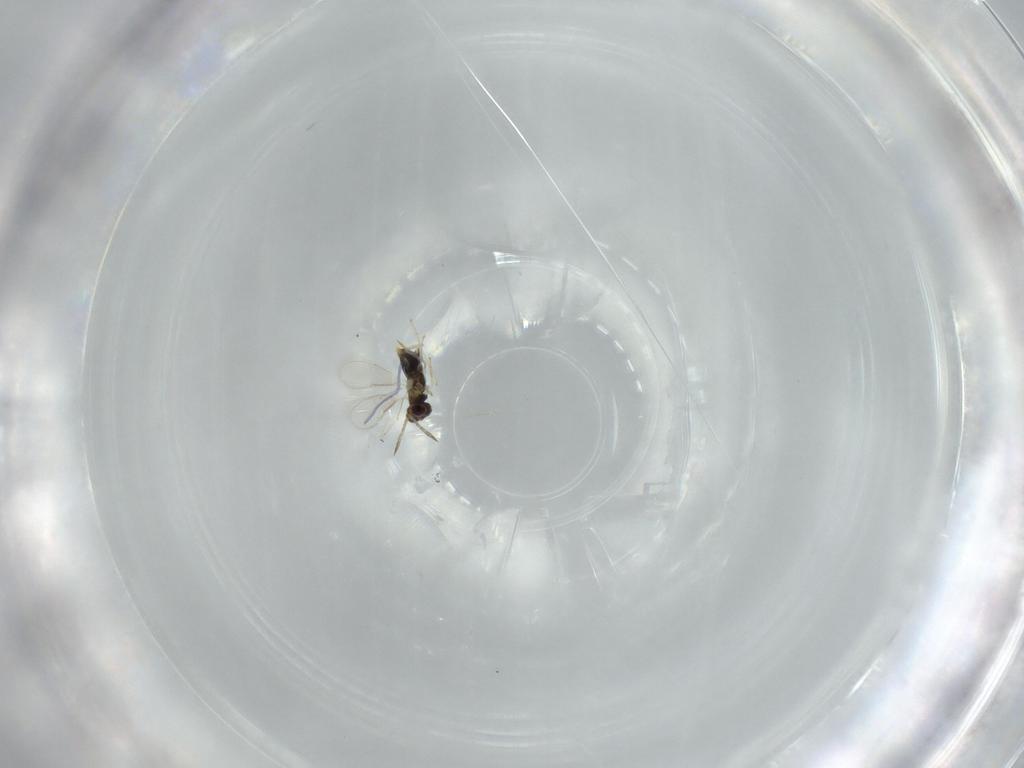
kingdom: Animalia
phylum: Arthropoda
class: Insecta
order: Hymenoptera
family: Aphelinidae
